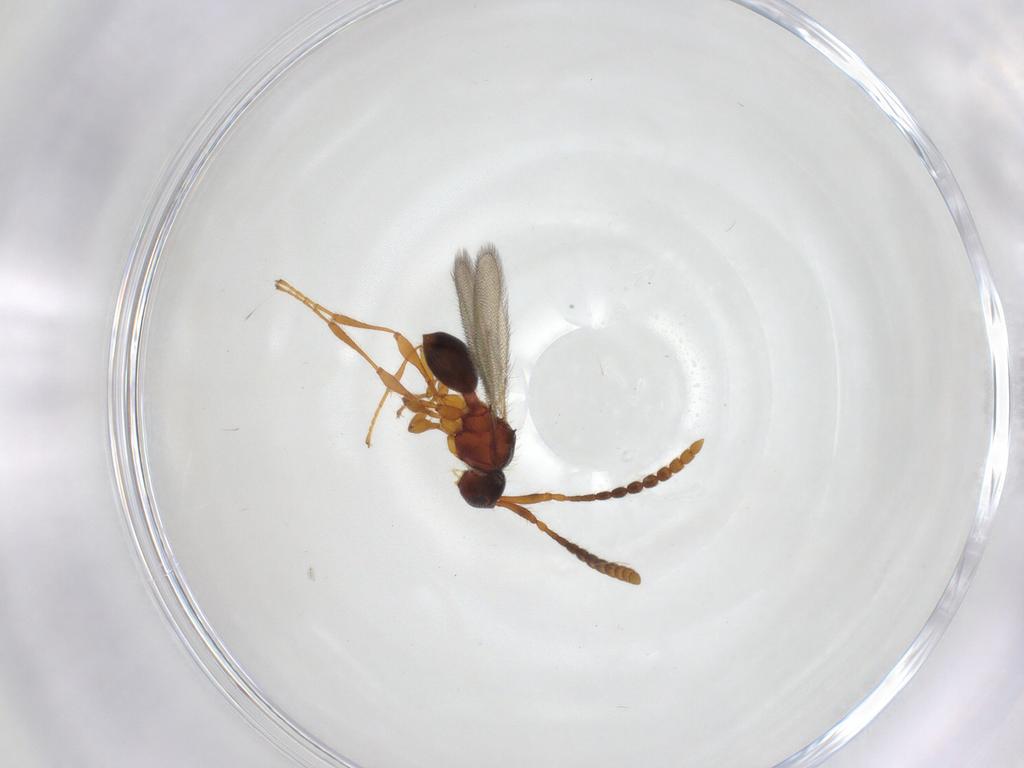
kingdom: Animalia
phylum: Arthropoda
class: Insecta
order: Hymenoptera
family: Diapriidae
